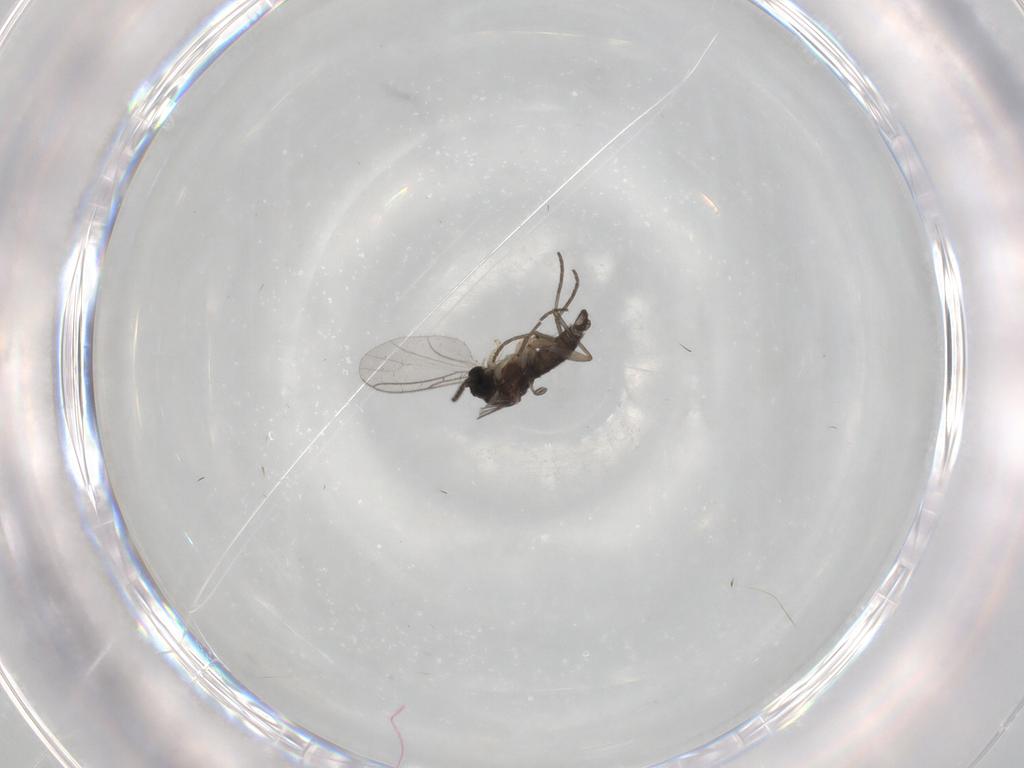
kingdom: Animalia
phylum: Arthropoda
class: Insecta
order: Diptera
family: Sciaridae
